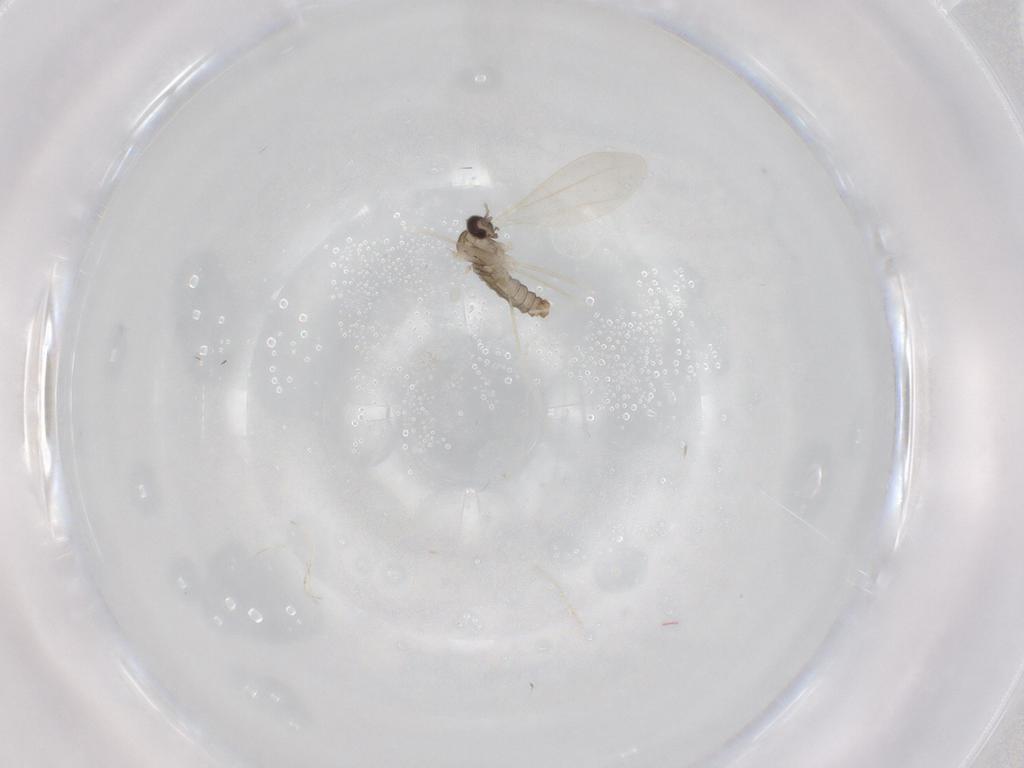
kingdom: Animalia
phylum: Arthropoda
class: Insecta
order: Diptera
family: Cecidomyiidae
